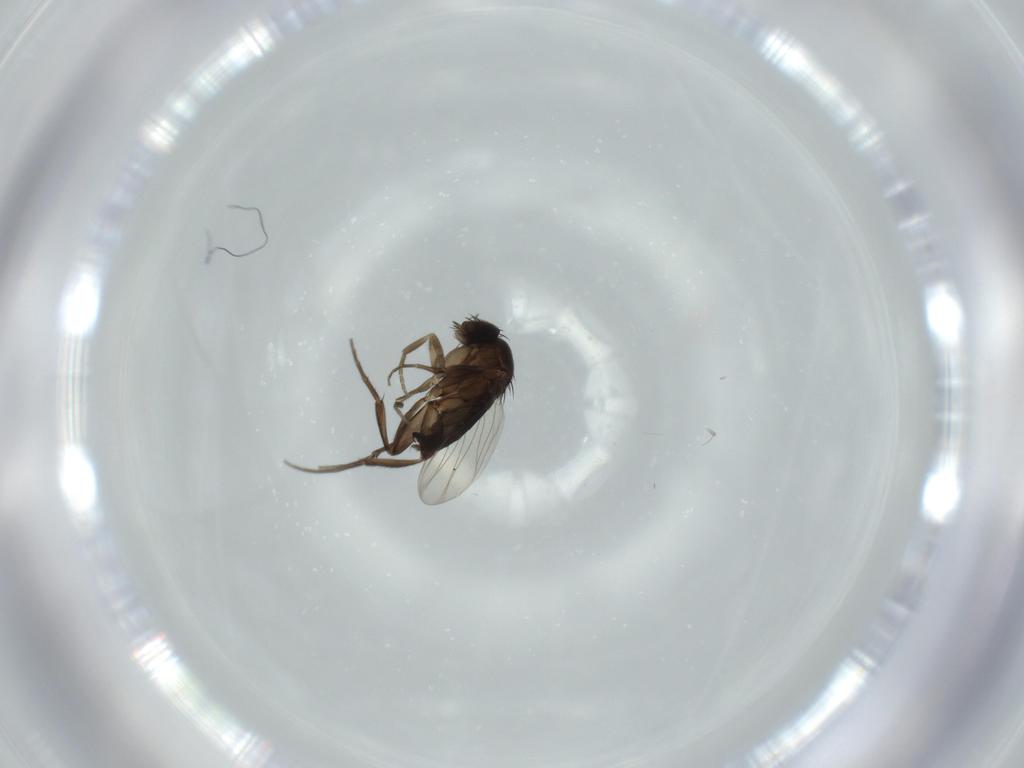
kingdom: Animalia
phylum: Arthropoda
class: Insecta
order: Diptera
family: Phoridae
